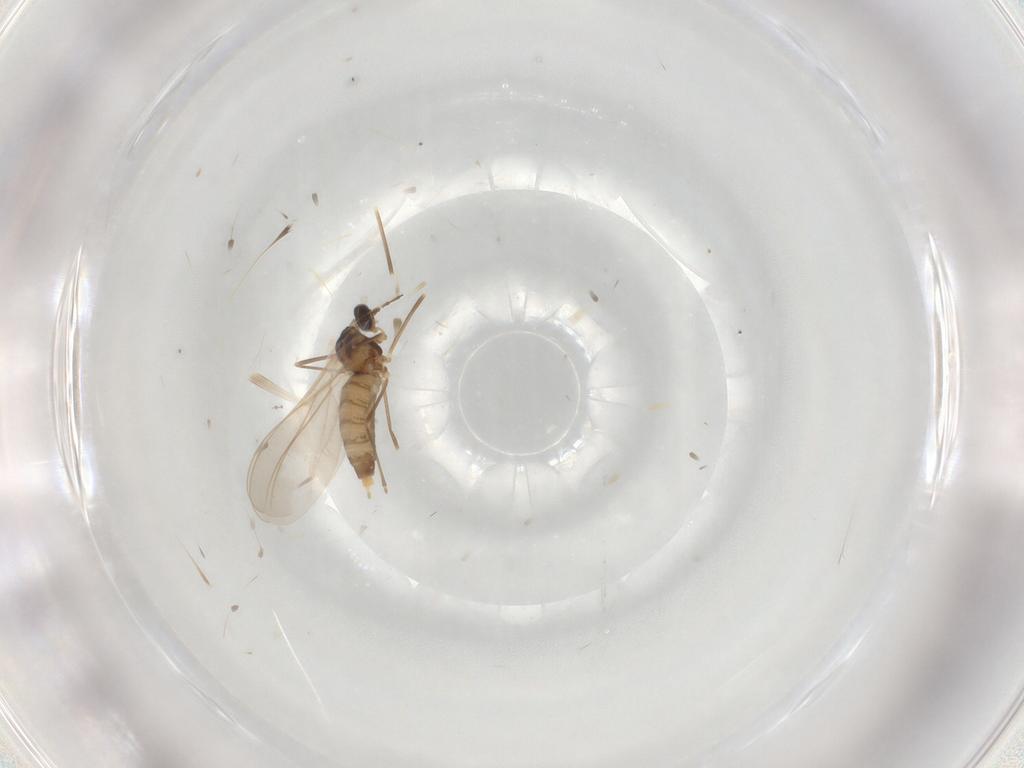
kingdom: Animalia
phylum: Arthropoda
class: Insecta
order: Diptera
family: Cecidomyiidae
